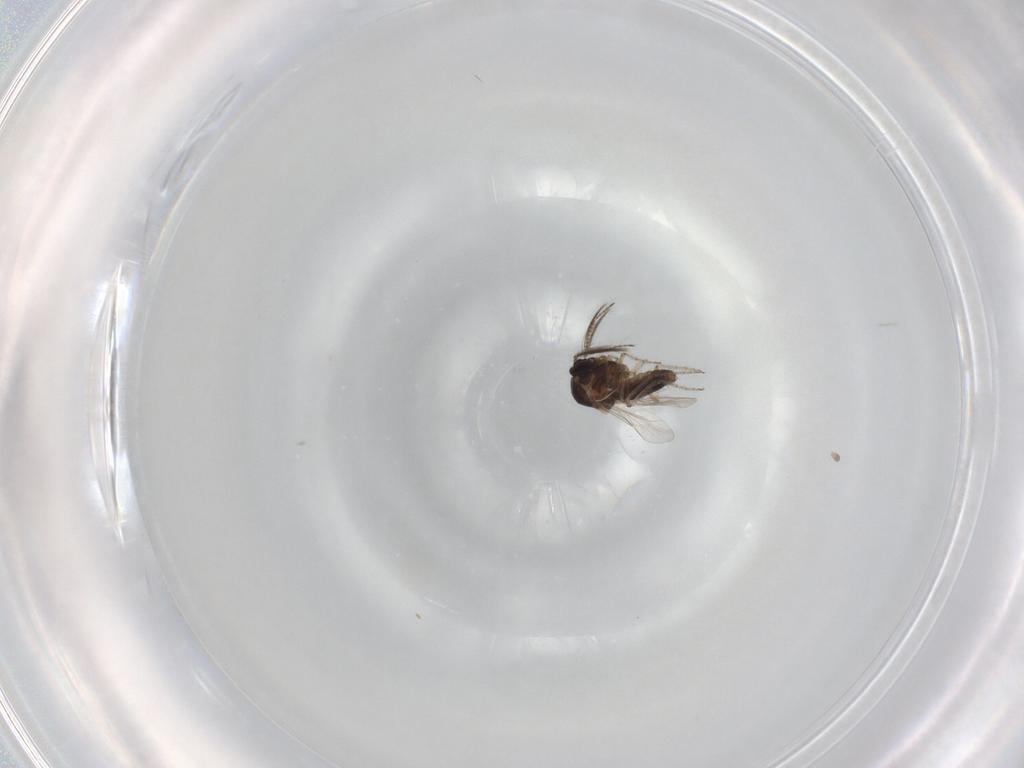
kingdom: Animalia
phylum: Arthropoda
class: Insecta
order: Diptera
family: Ceratopogonidae
